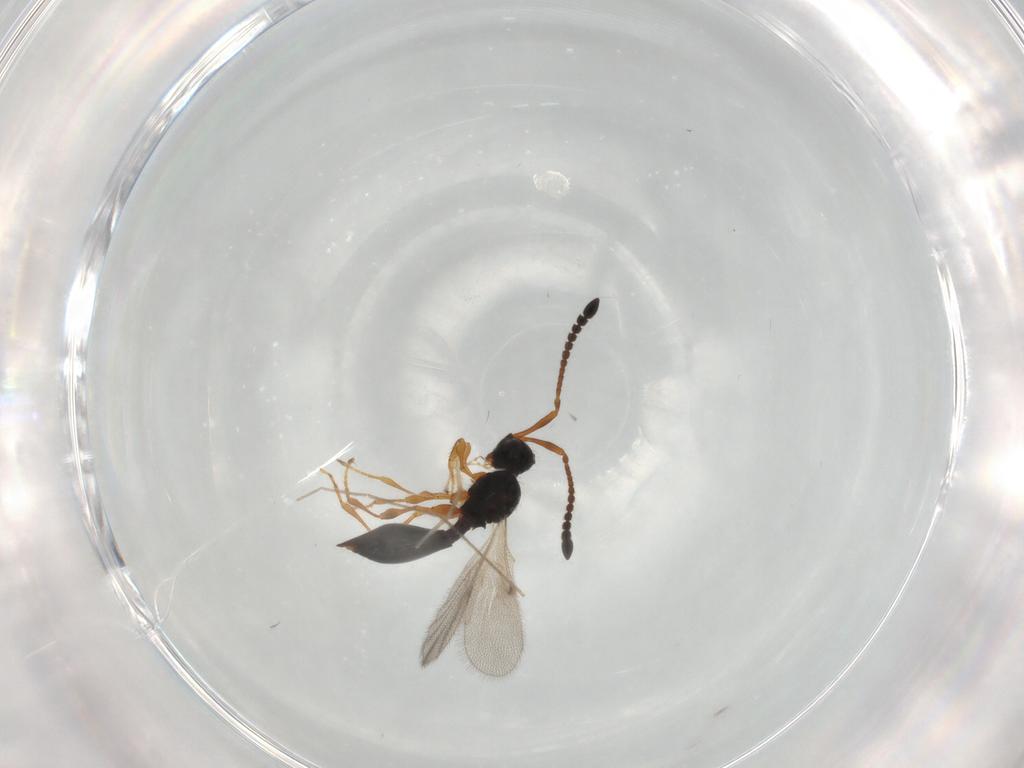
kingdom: Animalia
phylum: Arthropoda
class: Insecta
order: Hymenoptera
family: Diapriidae
